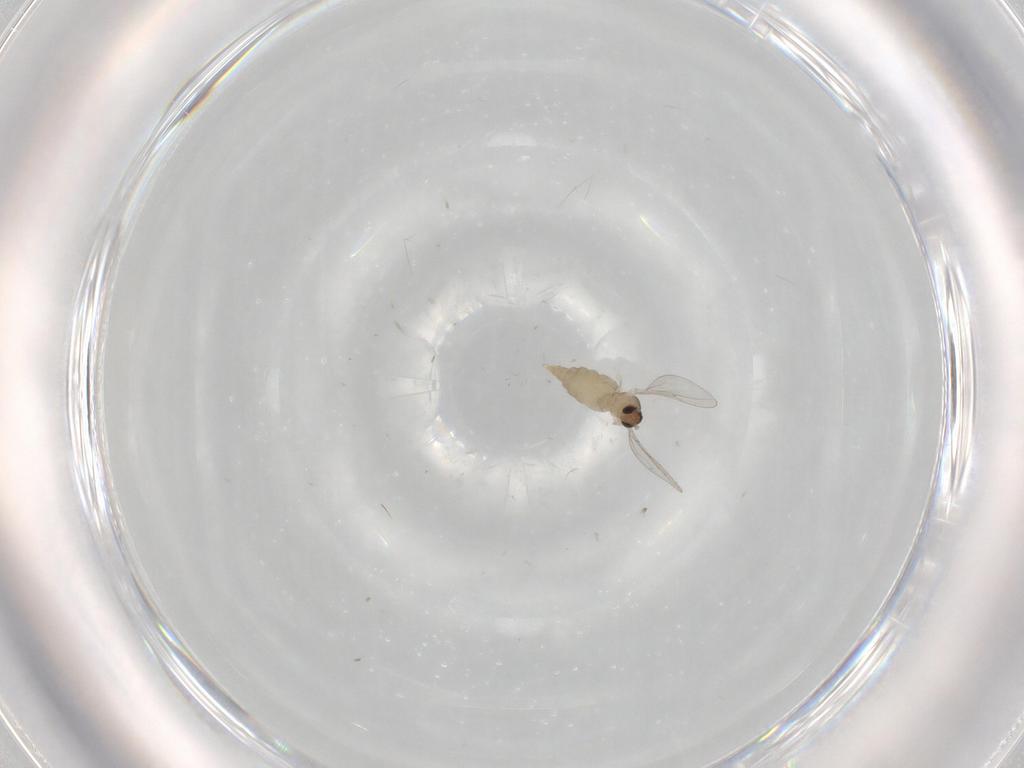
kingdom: Animalia
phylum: Arthropoda
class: Insecta
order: Diptera
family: Cecidomyiidae
